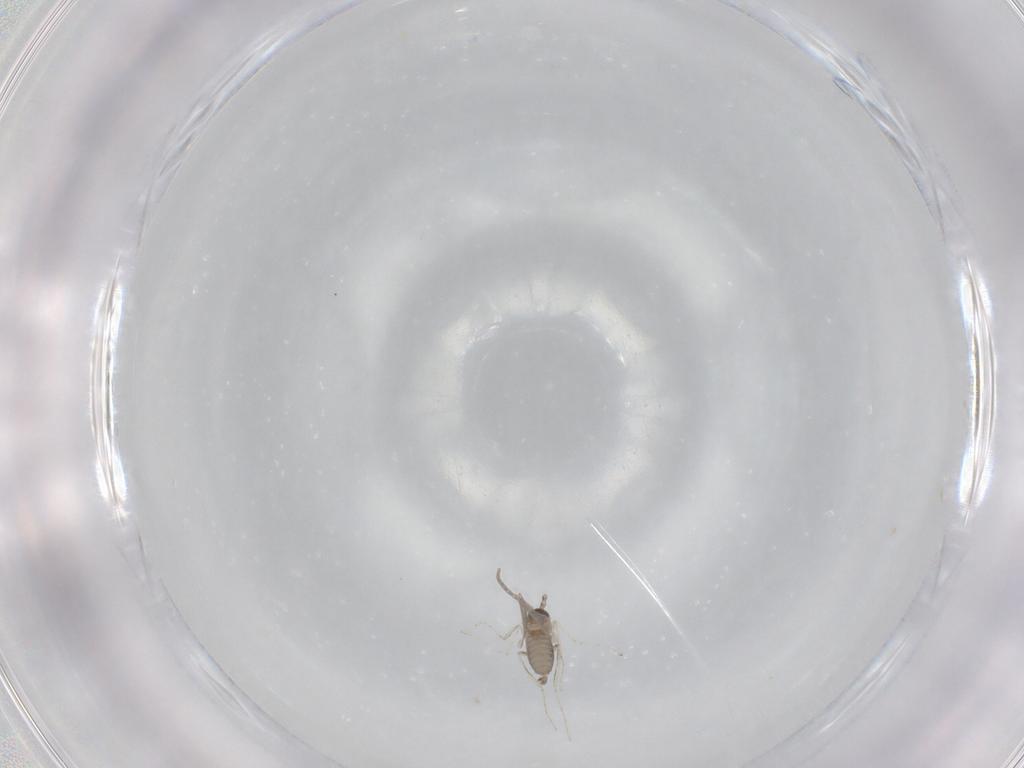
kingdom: Animalia
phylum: Arthropoda
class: Insecta
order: Diptera
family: Cecidomyiidae
